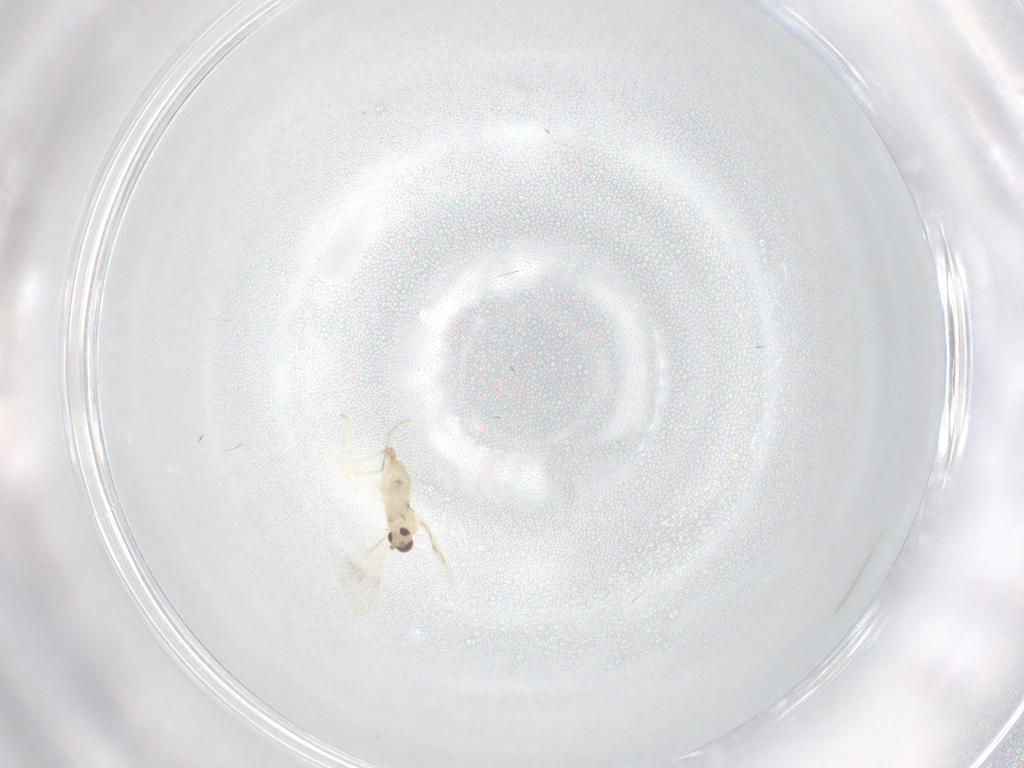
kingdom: Animalia
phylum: Arthropoda
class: Insecta
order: Diptera
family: Cecidomyiidae
